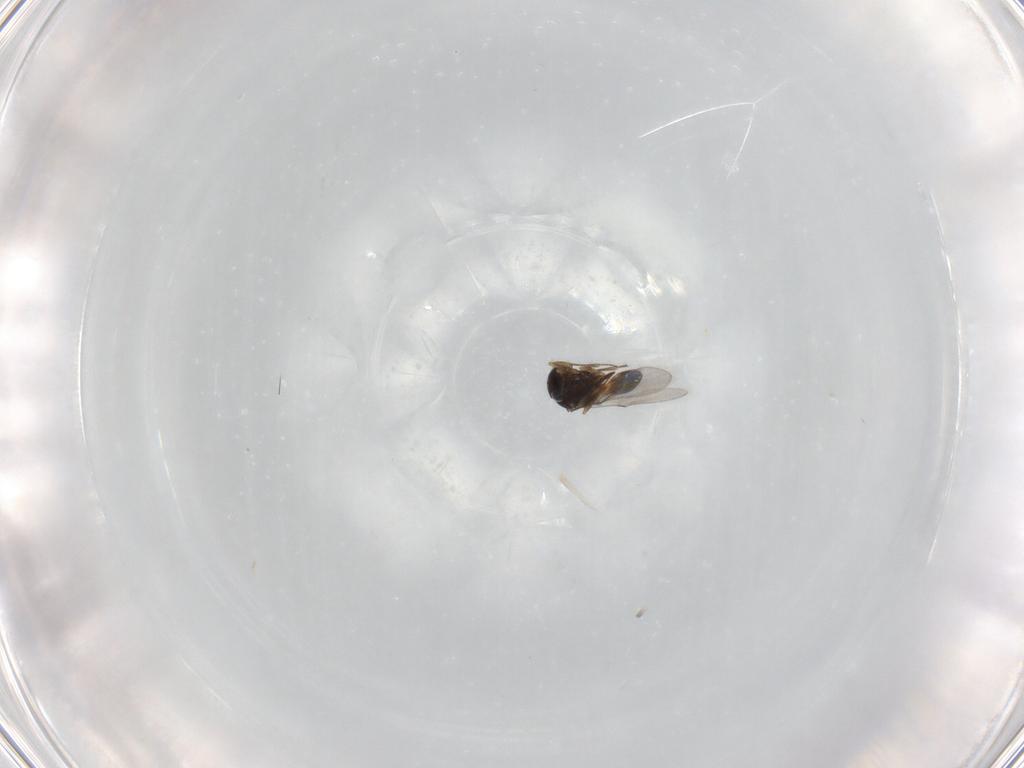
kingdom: Animalia
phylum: Arthropoda
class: Insecta
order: Hymenoptera
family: Scelionidae
